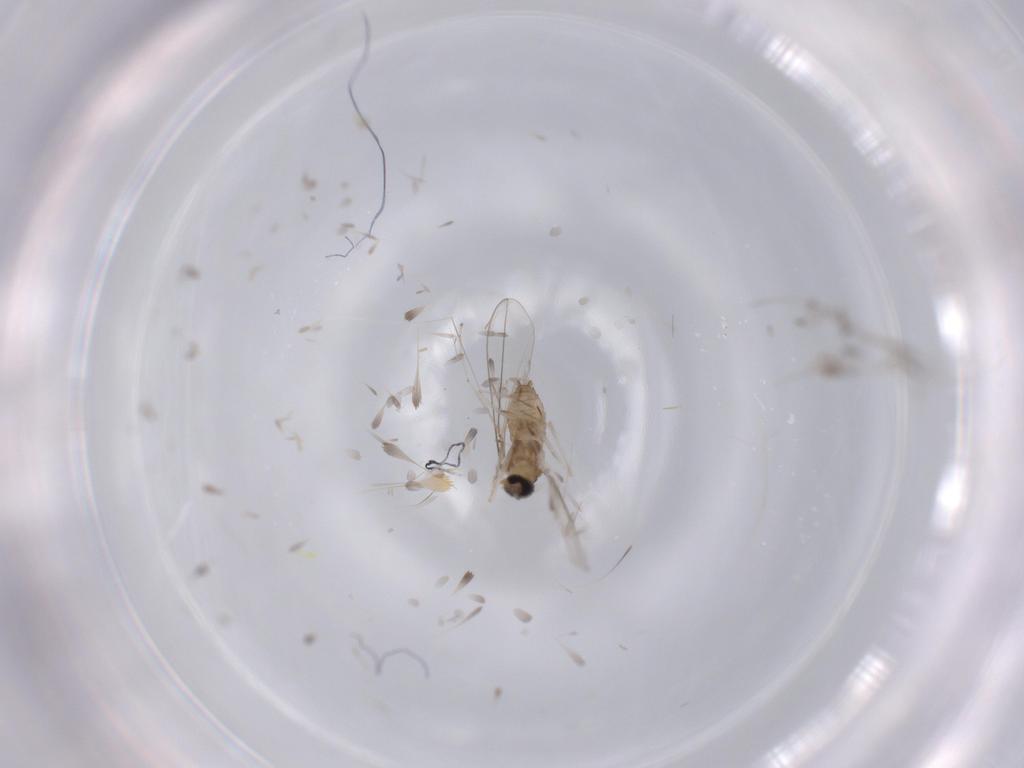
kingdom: Animalia
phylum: Arthropoda
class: Insecta
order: Diptera
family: Cecidomyiidae
